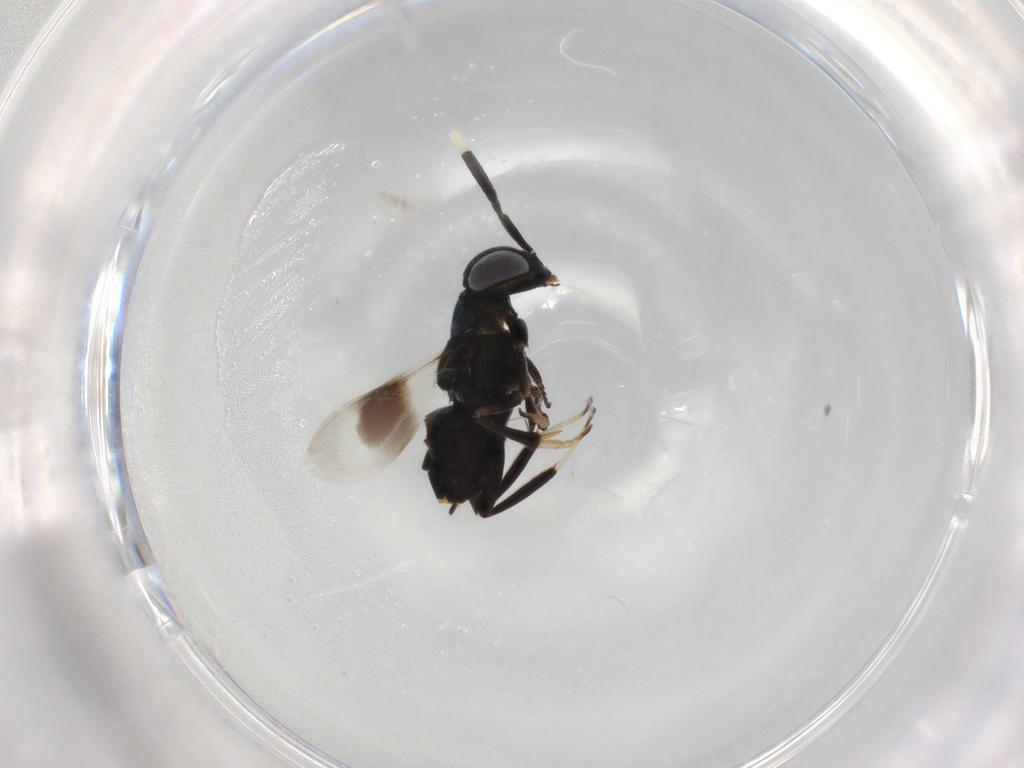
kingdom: Animalia
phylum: Arthropoda
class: Insecta
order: Hymenoptera
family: Encyrtidae
